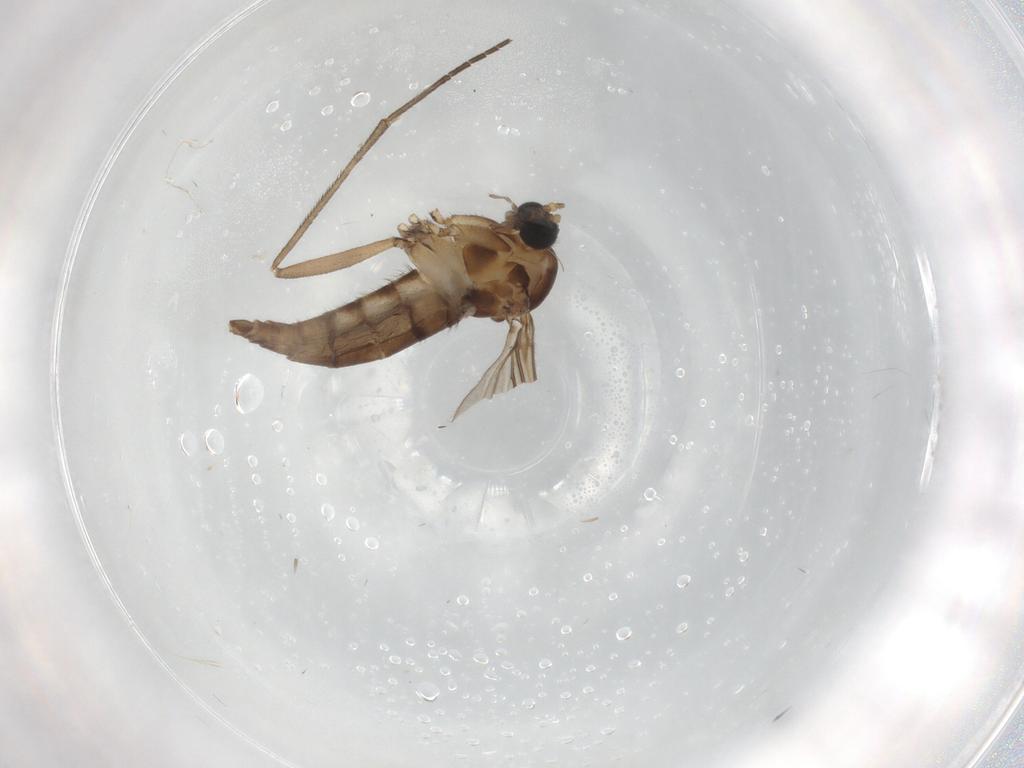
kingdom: Animalia
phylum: Arthropoda
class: Insecta
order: Diptera
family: Sciaridae
